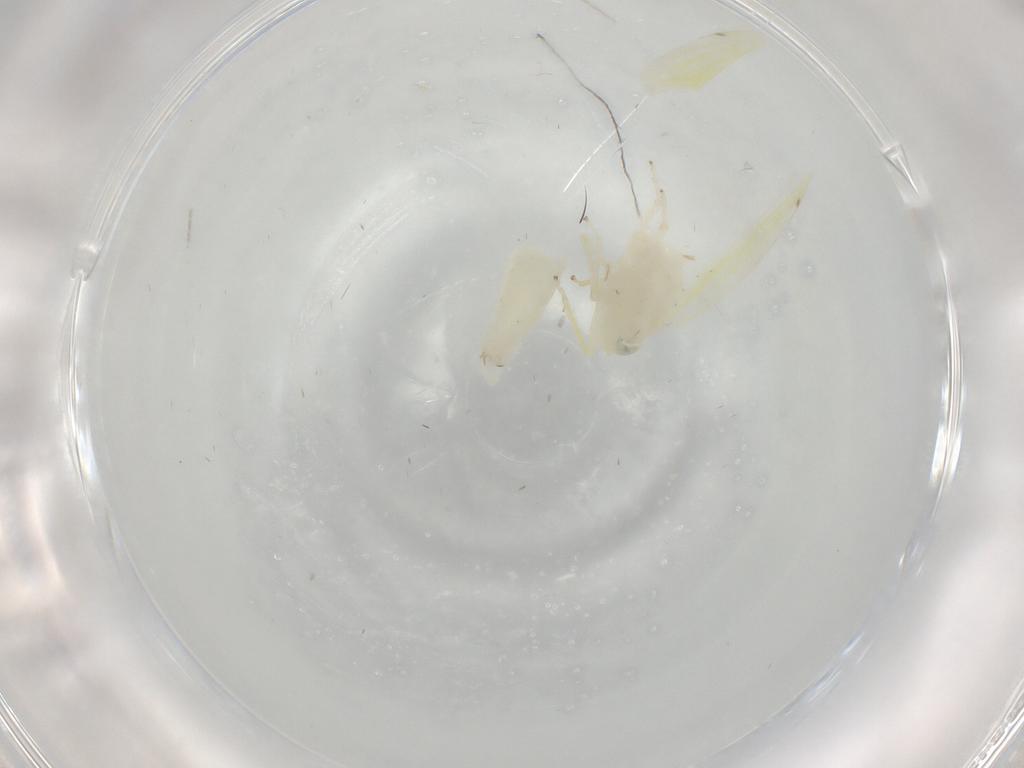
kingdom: Animalia
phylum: Arthropoda
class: Insecta
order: Hemiptera
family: Cicadellidae
